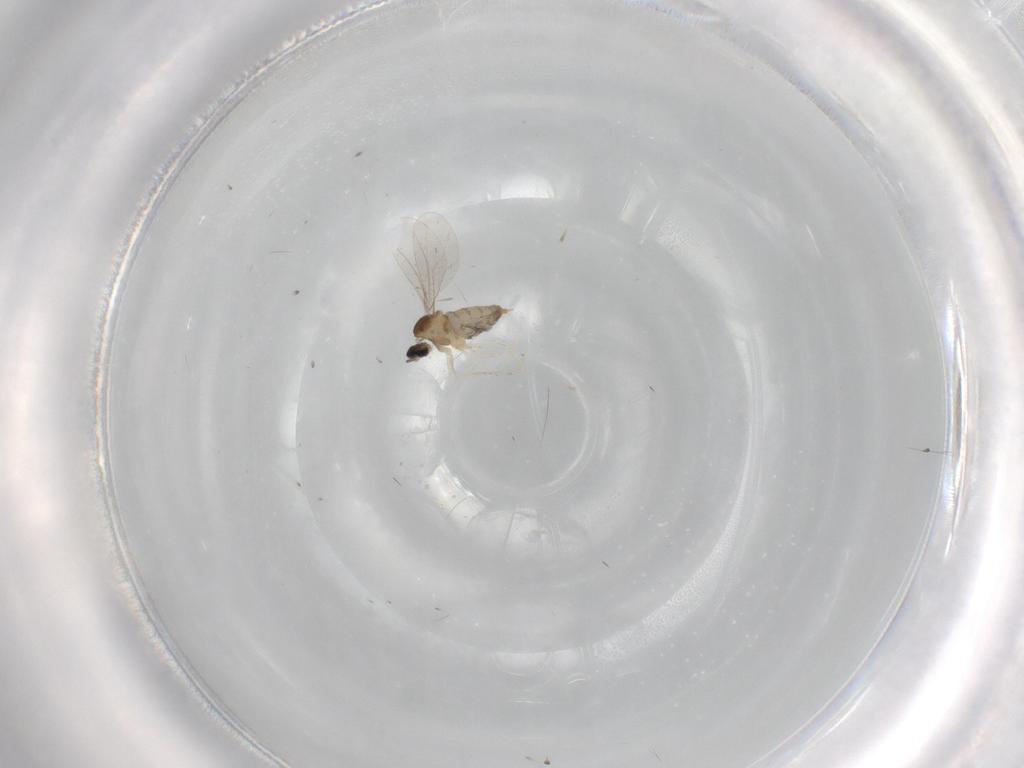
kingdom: Animalia
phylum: Arthropoda
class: Insecta
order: Diptera
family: Cecidomyiidae
